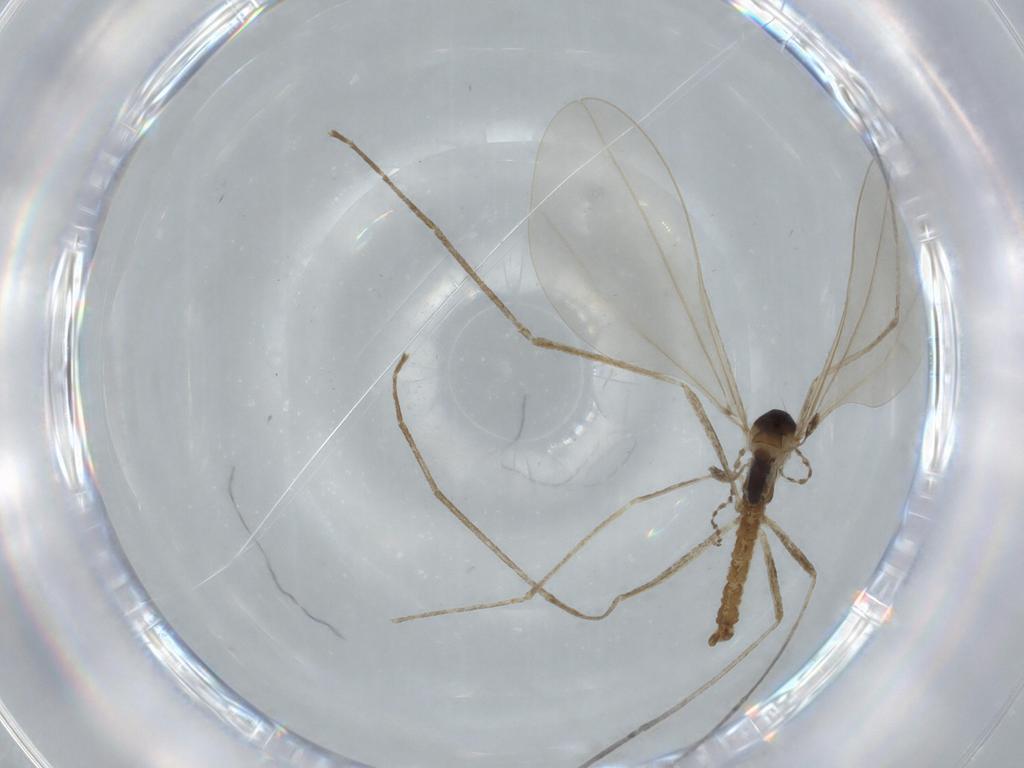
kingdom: Animalia
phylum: Arthropoda
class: Insecta
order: Diptera
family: Cecidomyiidae
